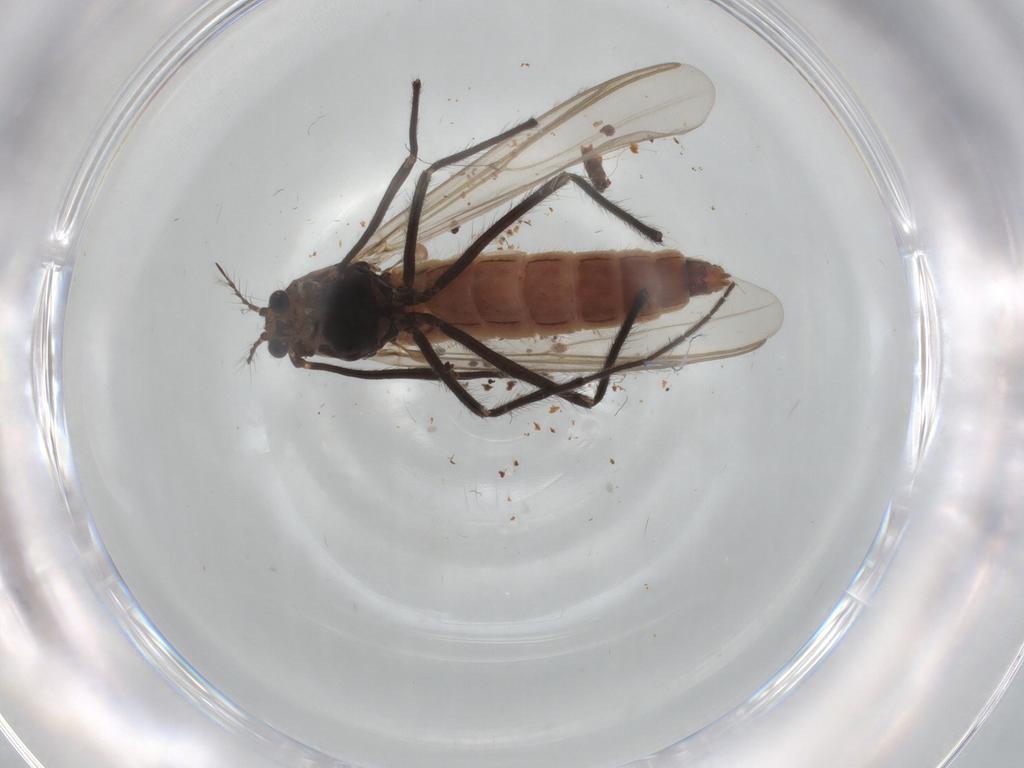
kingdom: Animalia
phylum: Arthropoda
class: Insecta
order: Diptera
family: Chironomidae
